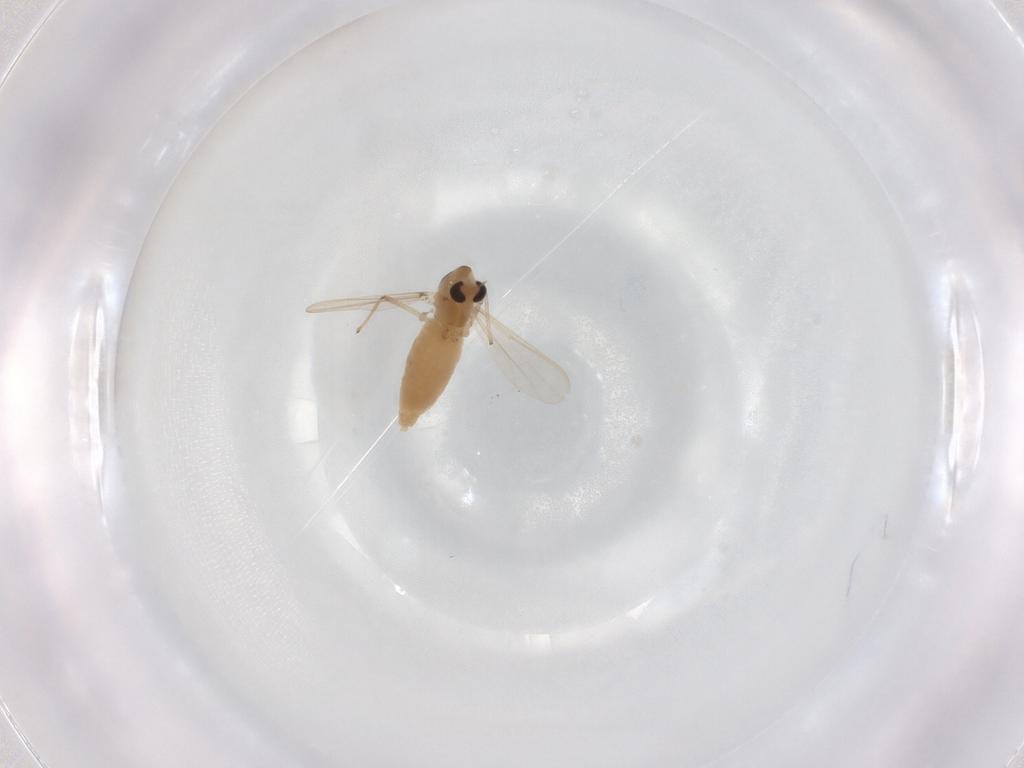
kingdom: Animalia
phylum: Arthropoda
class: Insecta
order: Diptera
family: Chironomidae
